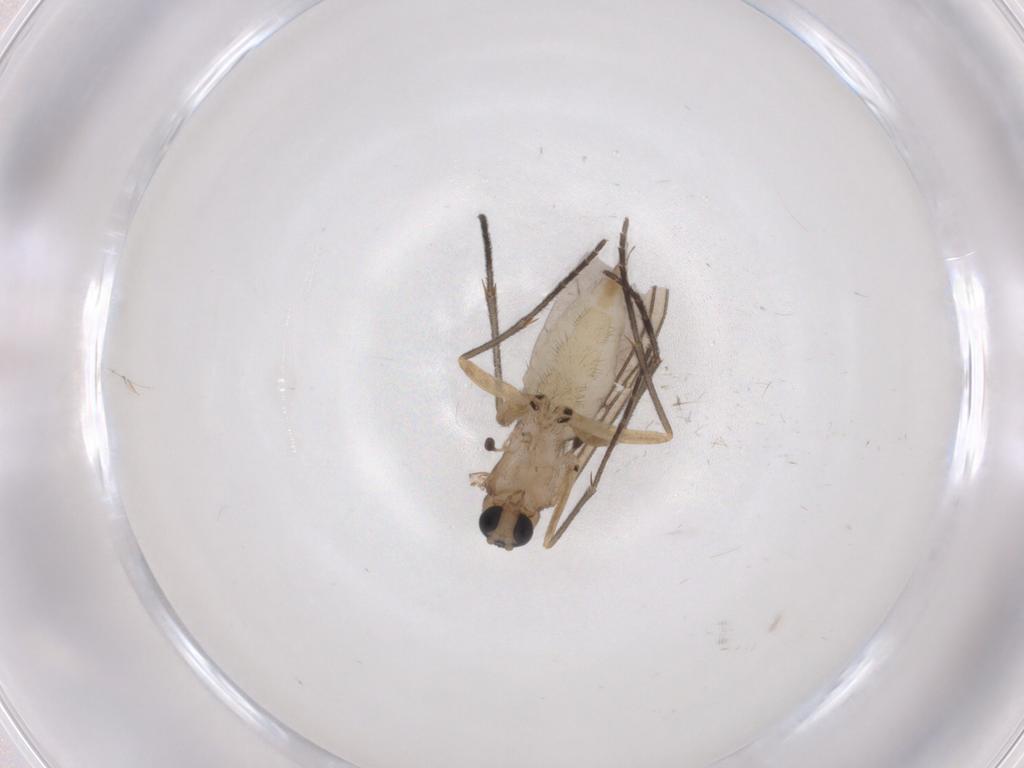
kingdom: Animalia
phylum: Arthropoda
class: Insecta
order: Diptera
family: Sciaridae
